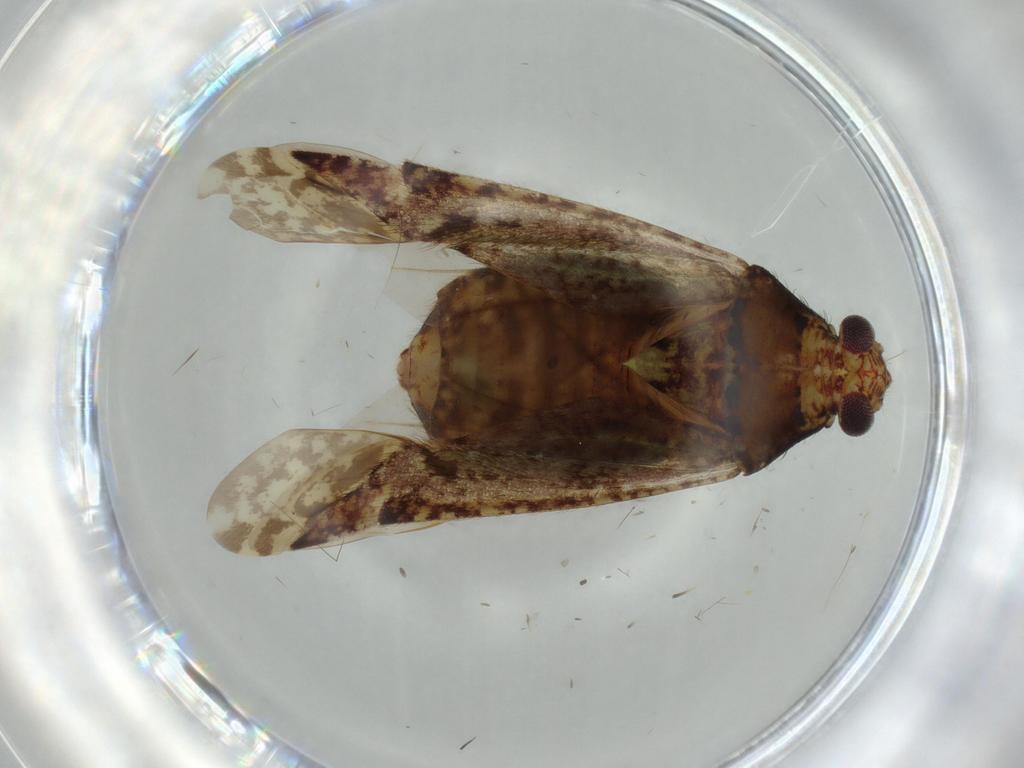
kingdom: Animalia
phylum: Arthropoda
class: Insecta
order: Hemiptera
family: Miridae
